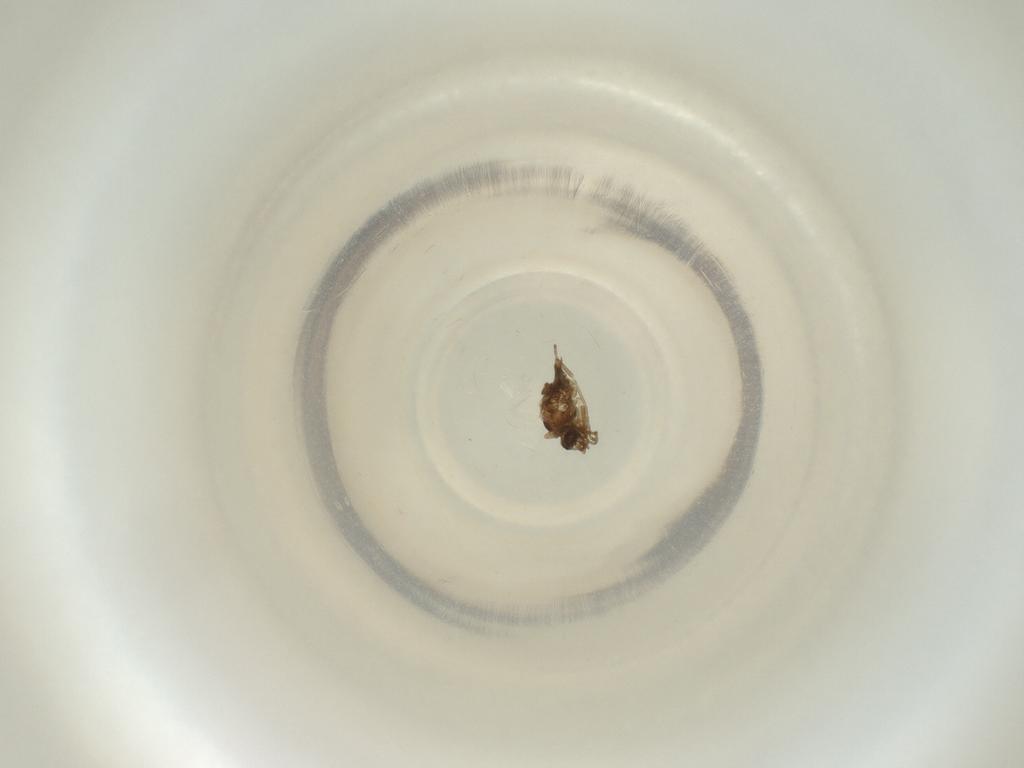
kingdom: Animalia
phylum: Arthropoda
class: Insecta
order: Diptera
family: Cecidomyiidae
